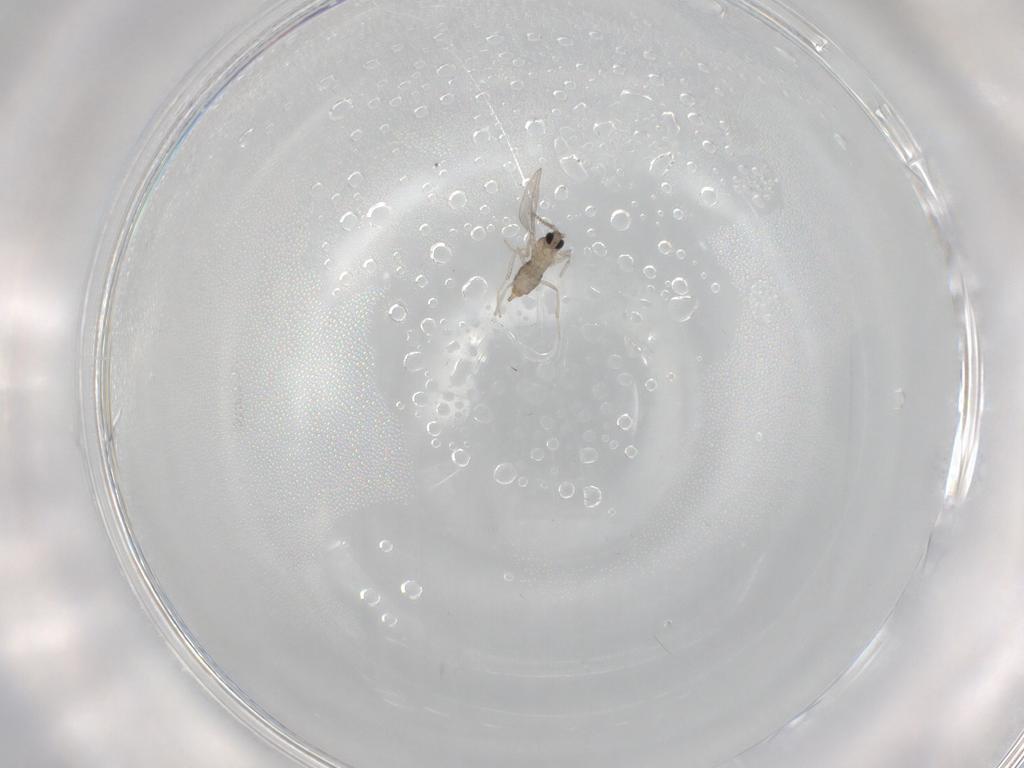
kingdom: Animalia
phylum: Arthropoda
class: Insecta
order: Diptera
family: Cecidomyiidae
